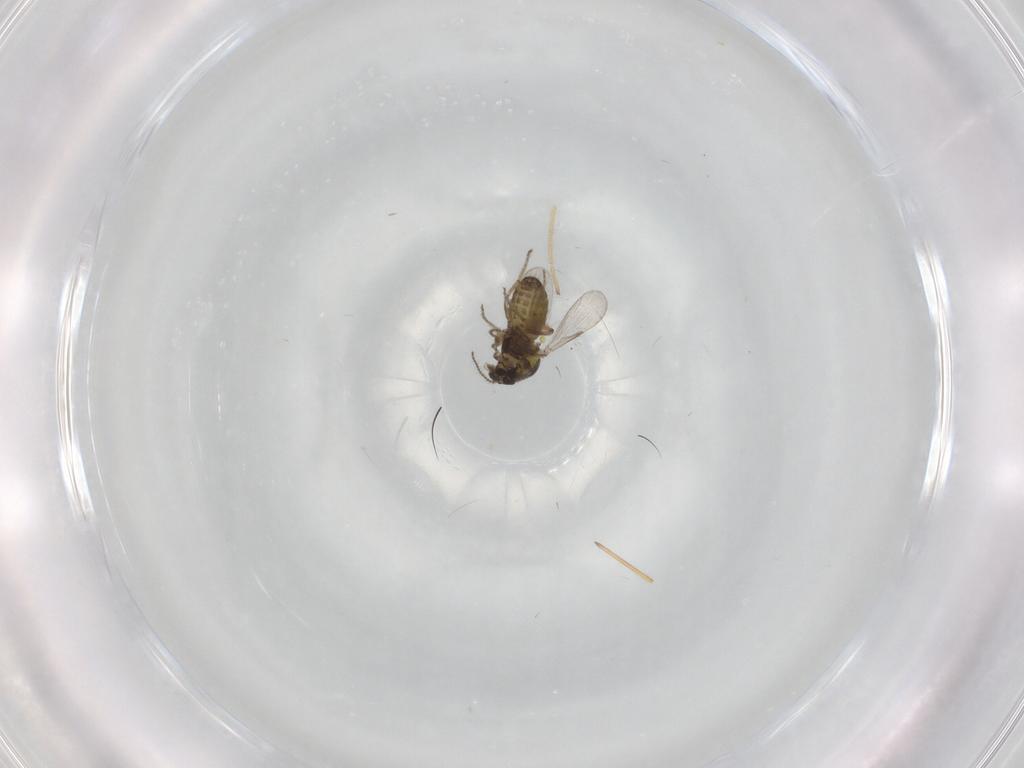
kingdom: Animalia
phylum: Arthropoda
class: Insecta
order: Diptera
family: Ceratopogonidae
